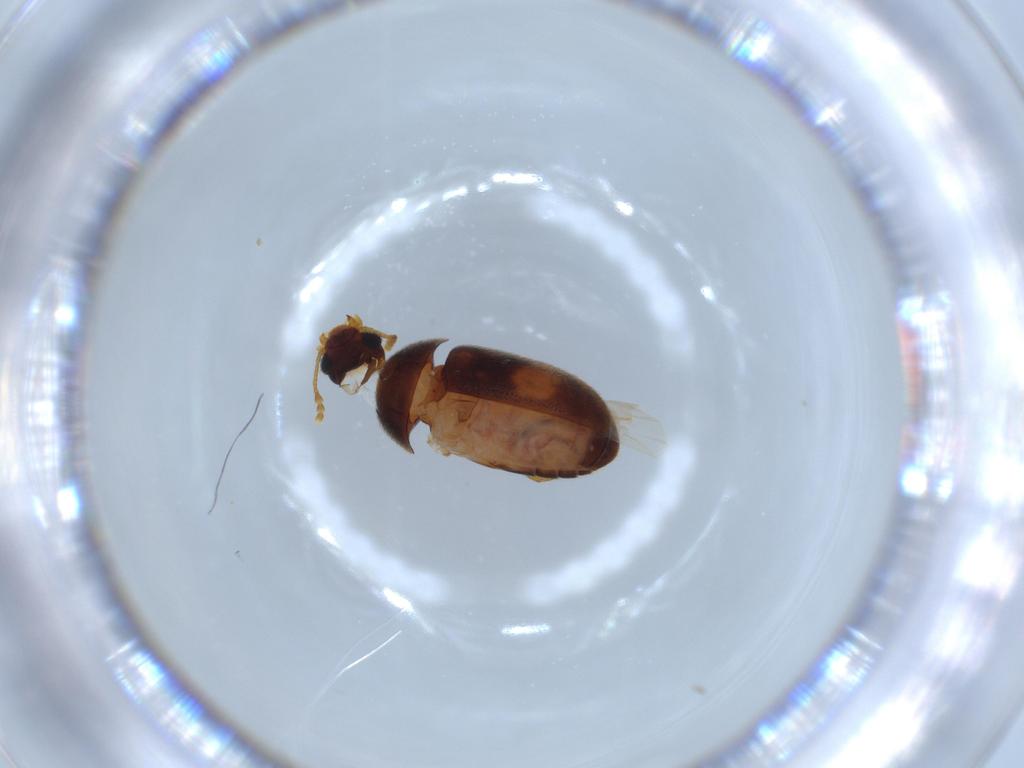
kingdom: Animalia
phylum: Arthropoda
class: Insecta
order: Coleoptera
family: Mycetophagidae
